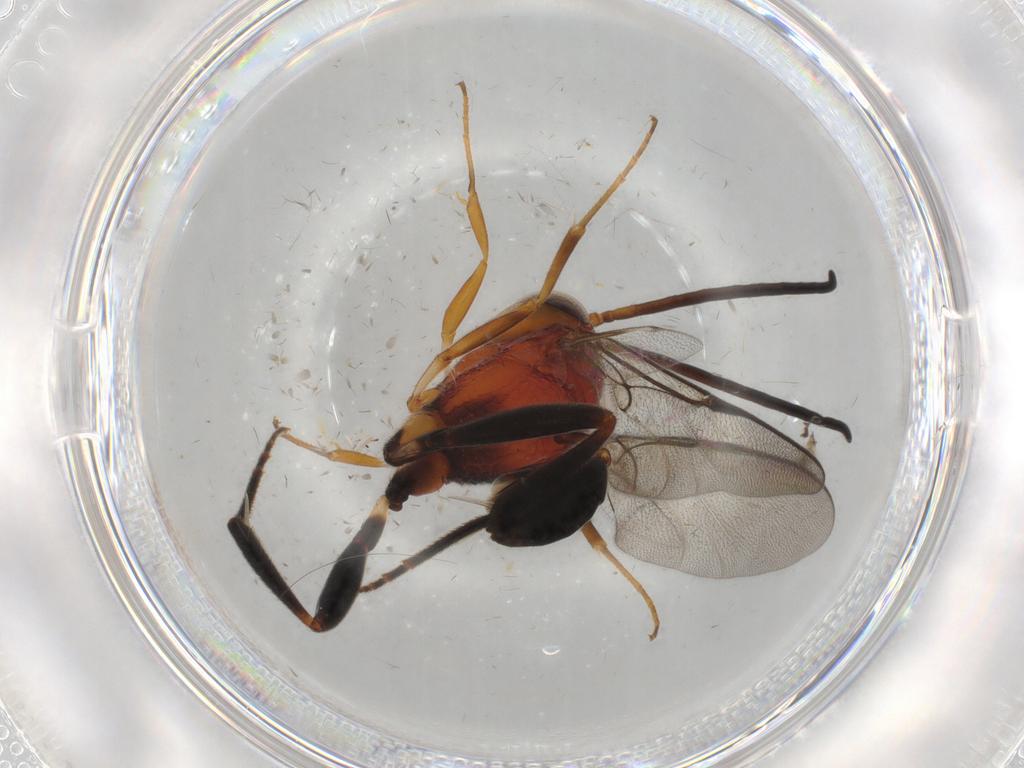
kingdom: Animalia
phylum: Arthropoda
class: Insecta
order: Hymenoptera
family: Evaniidae
